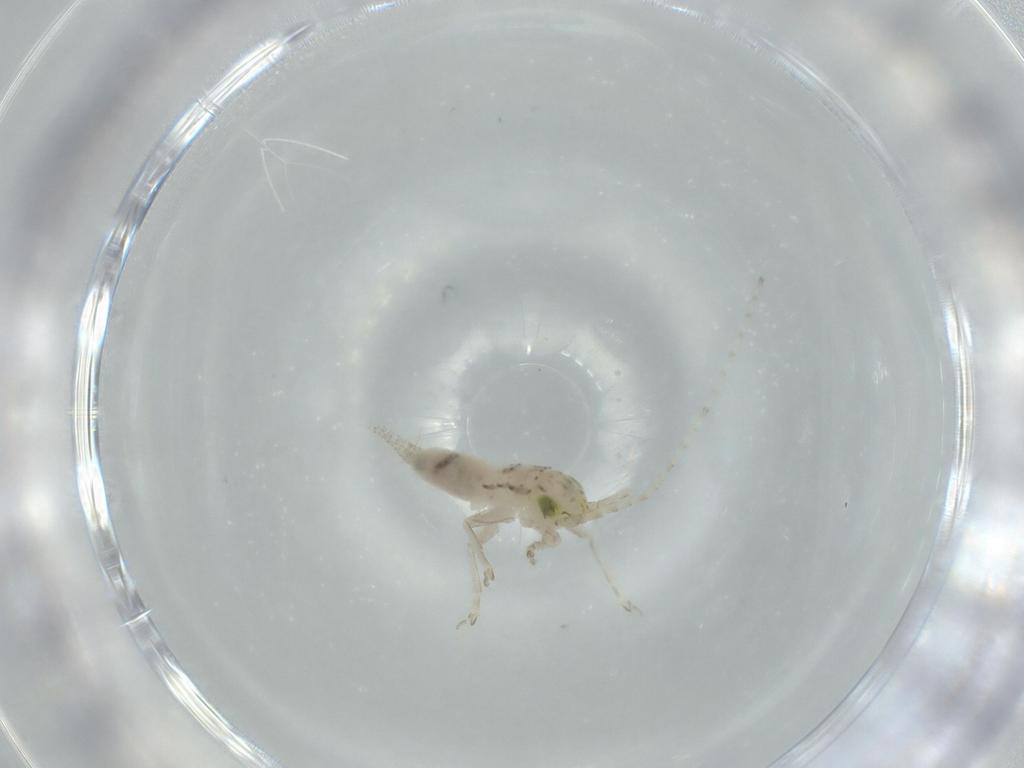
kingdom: Animalia
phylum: Arthropoda
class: Insecta
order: Orthoptera
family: Trigonidiidae
